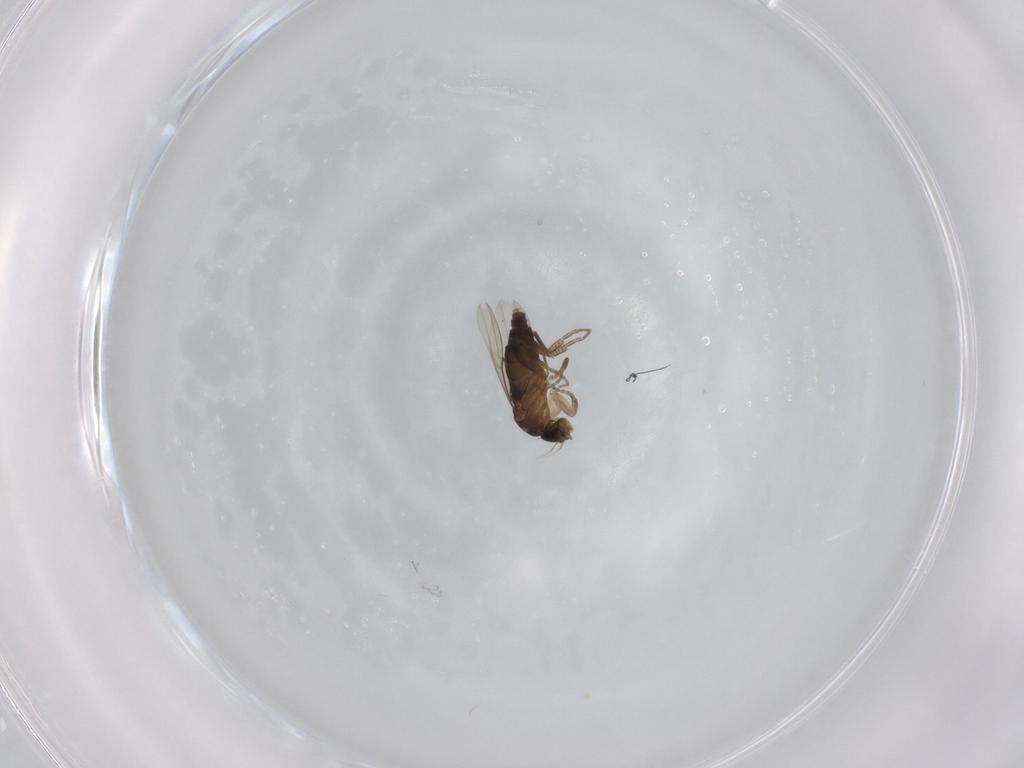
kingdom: Animalia
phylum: Arthropoda
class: Insecta
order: Diptera
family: Phoridae
